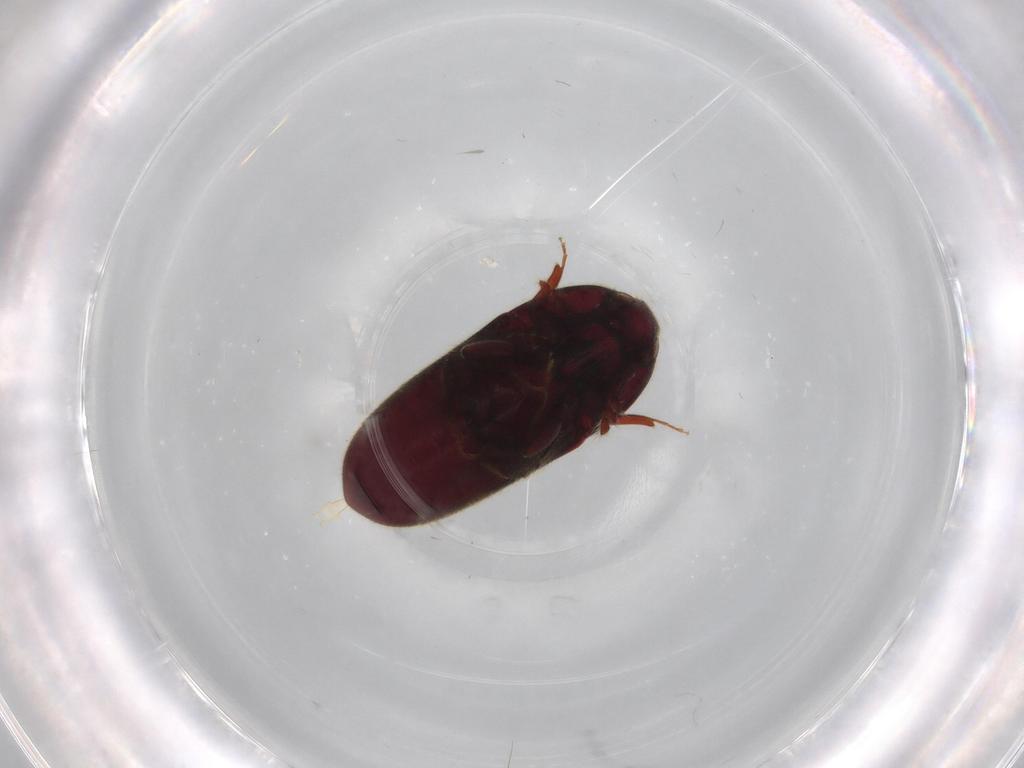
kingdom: Animalia
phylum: Arthropoda
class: Insecta
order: Coleoptera
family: Throscidae
